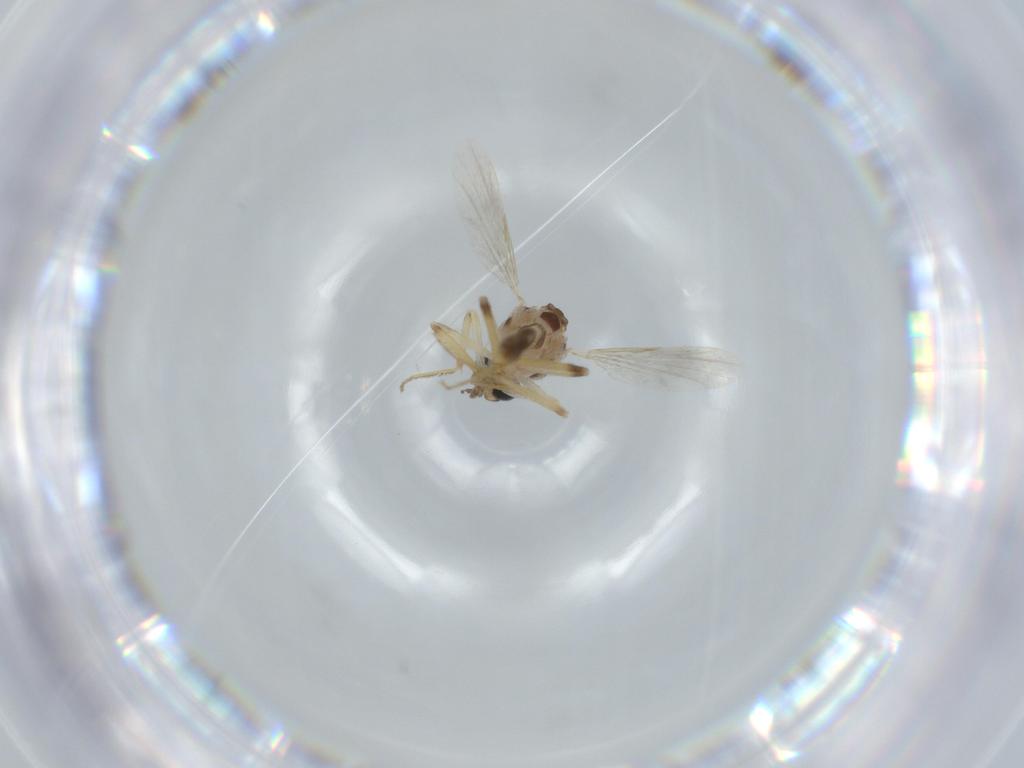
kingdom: Animalia
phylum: Arthropoda
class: Insecta
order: Diptera
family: Ceratopogonidae
